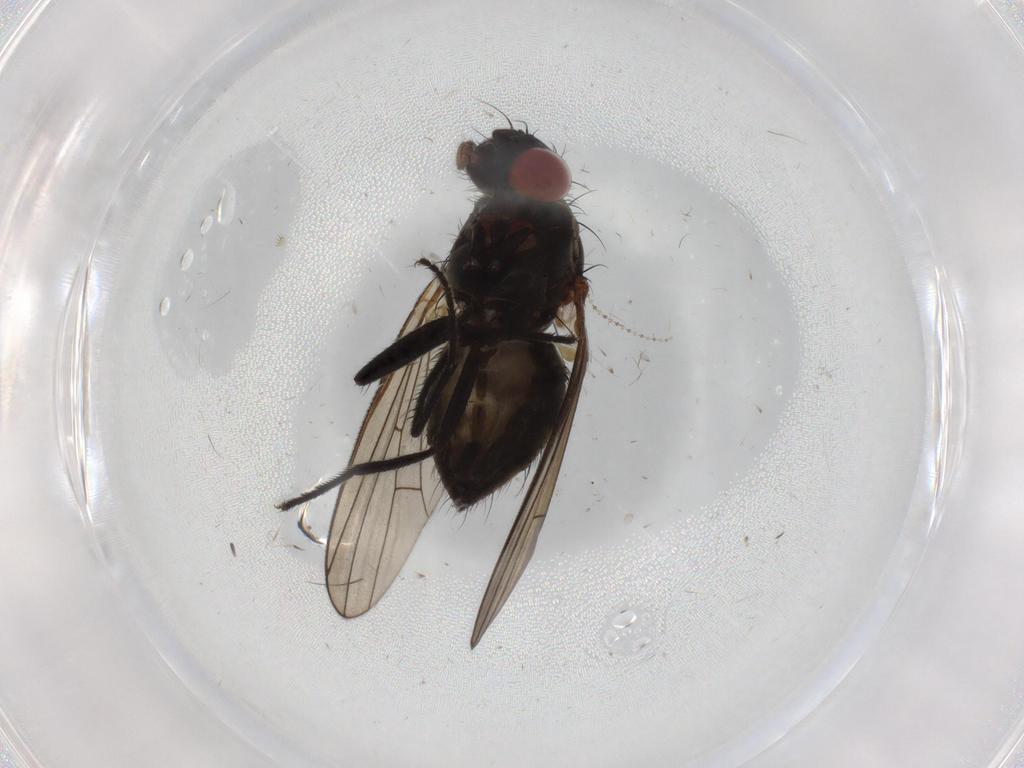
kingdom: Animalia
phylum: Arthropoda
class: Insecta
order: Diptera
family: Muscidae
